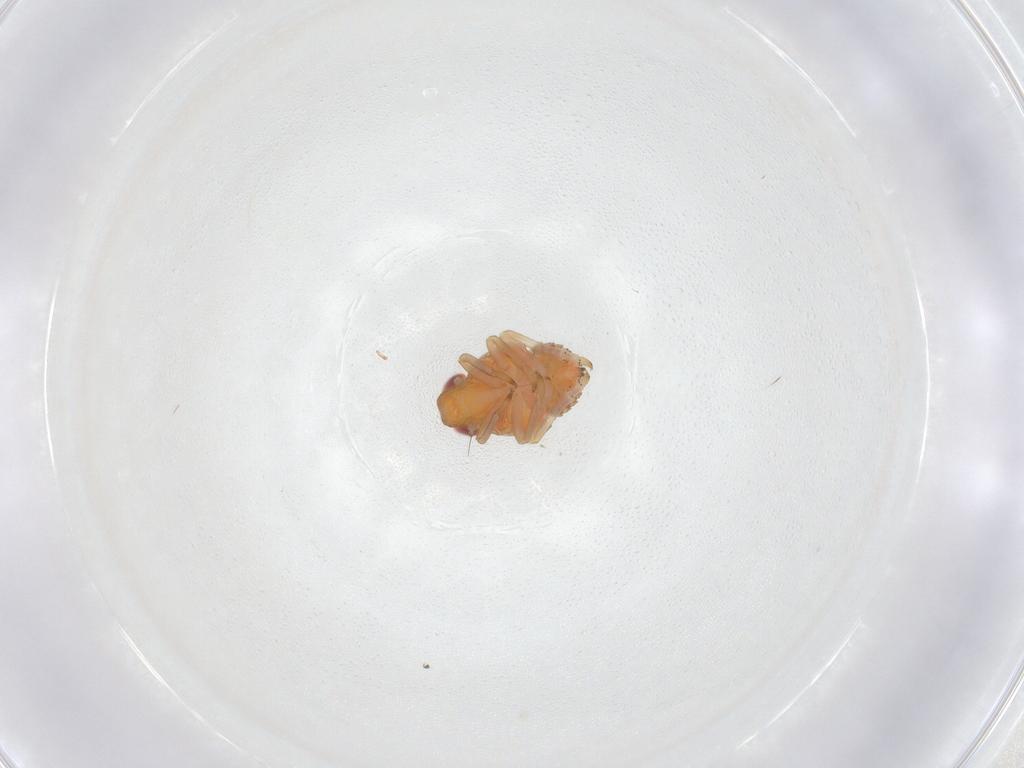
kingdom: Animalia
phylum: Arthropoda
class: Insecta
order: Hemiptera
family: Fulgoroidea_incertae_sedis
